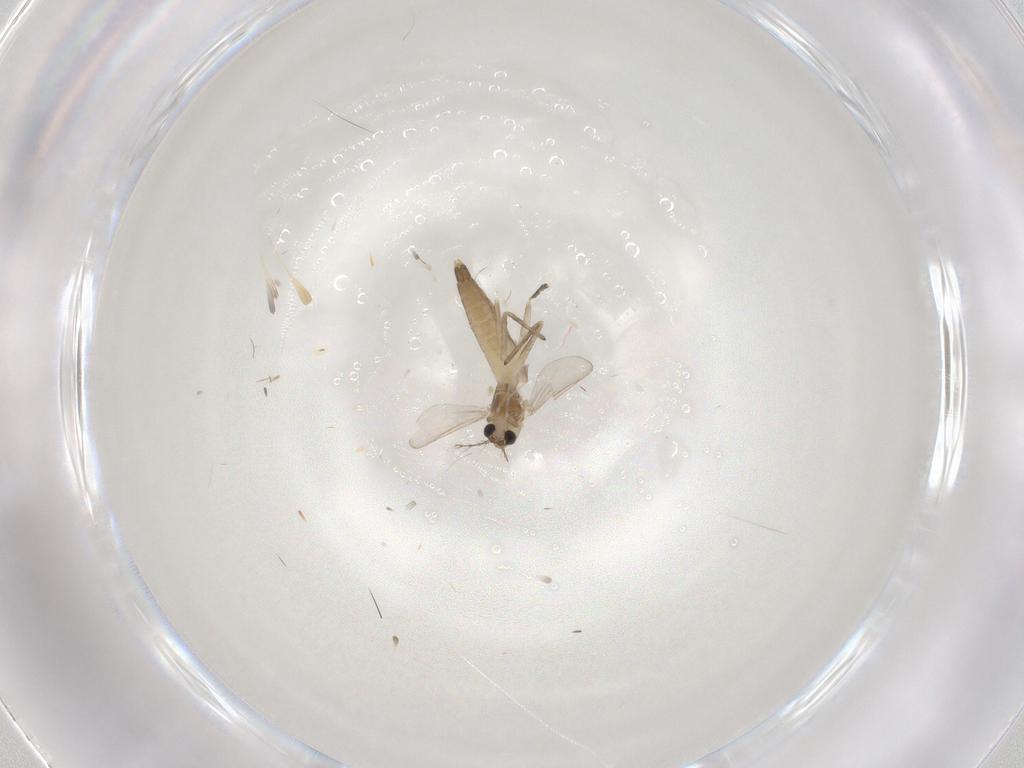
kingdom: Animalia
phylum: Arthropoda
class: Insecta
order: Diptera
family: Chironomidae
